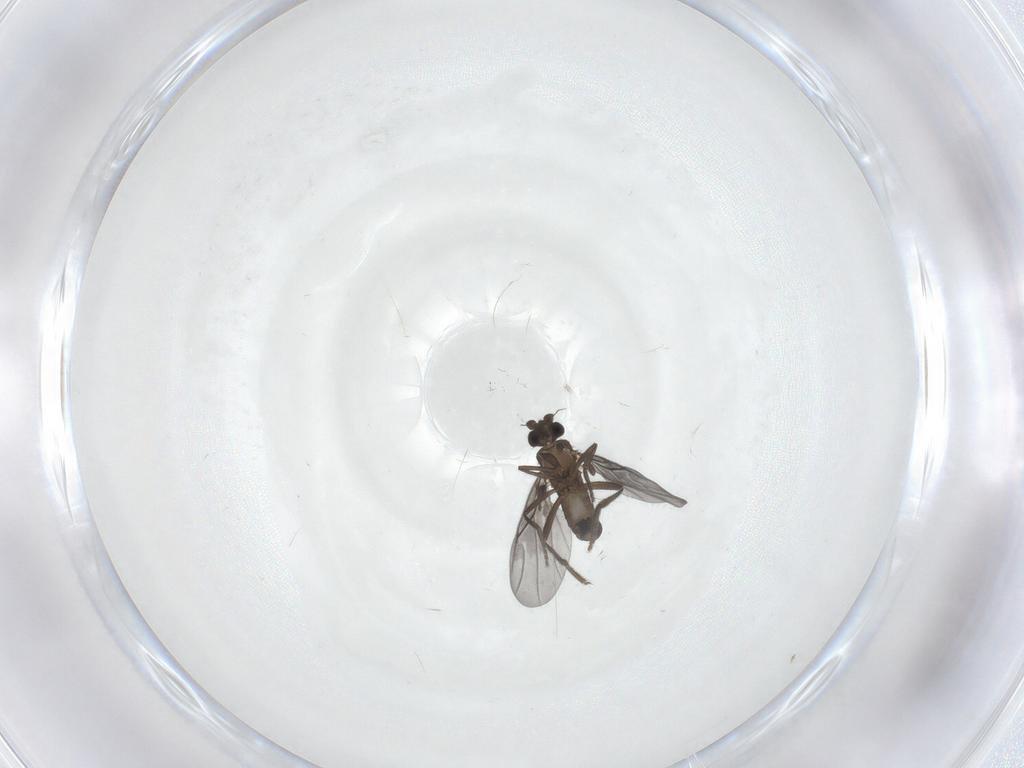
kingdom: Animalia
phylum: Arthropoda
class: Insecta
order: Diptera
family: Phoridae
